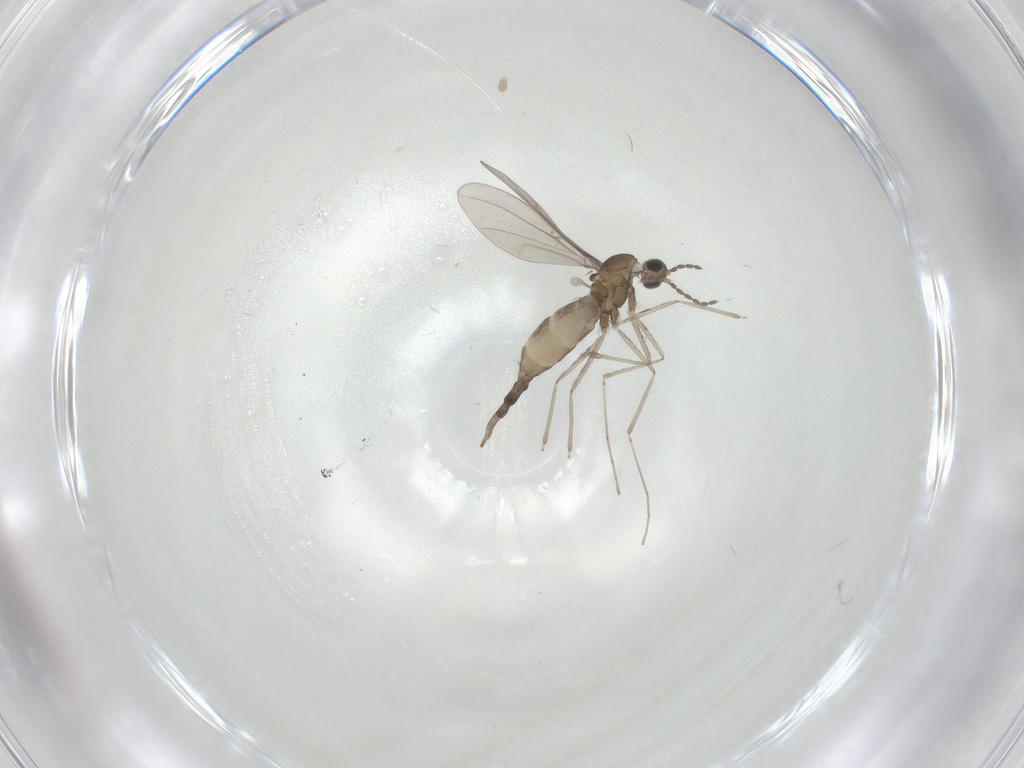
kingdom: Animalia
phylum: Arthropoda
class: Insecta
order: Diptera
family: Psychodidae
